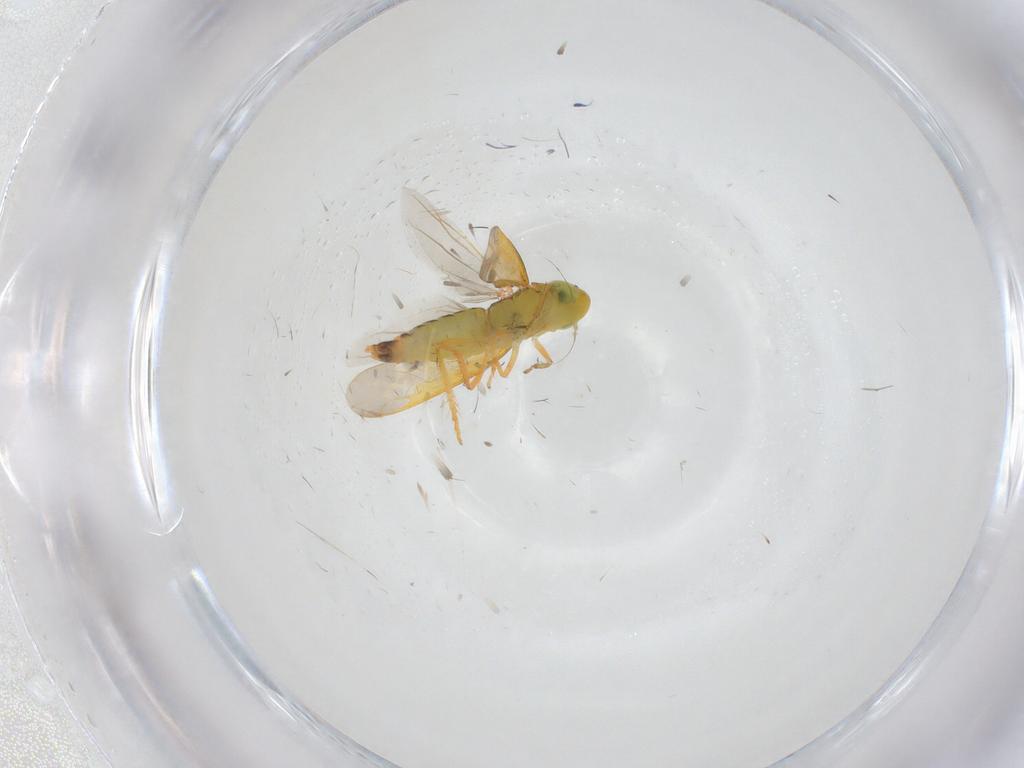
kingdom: Animalia
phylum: Arthropoda
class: Insecta
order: Hemiptera
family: Cicadellidae
